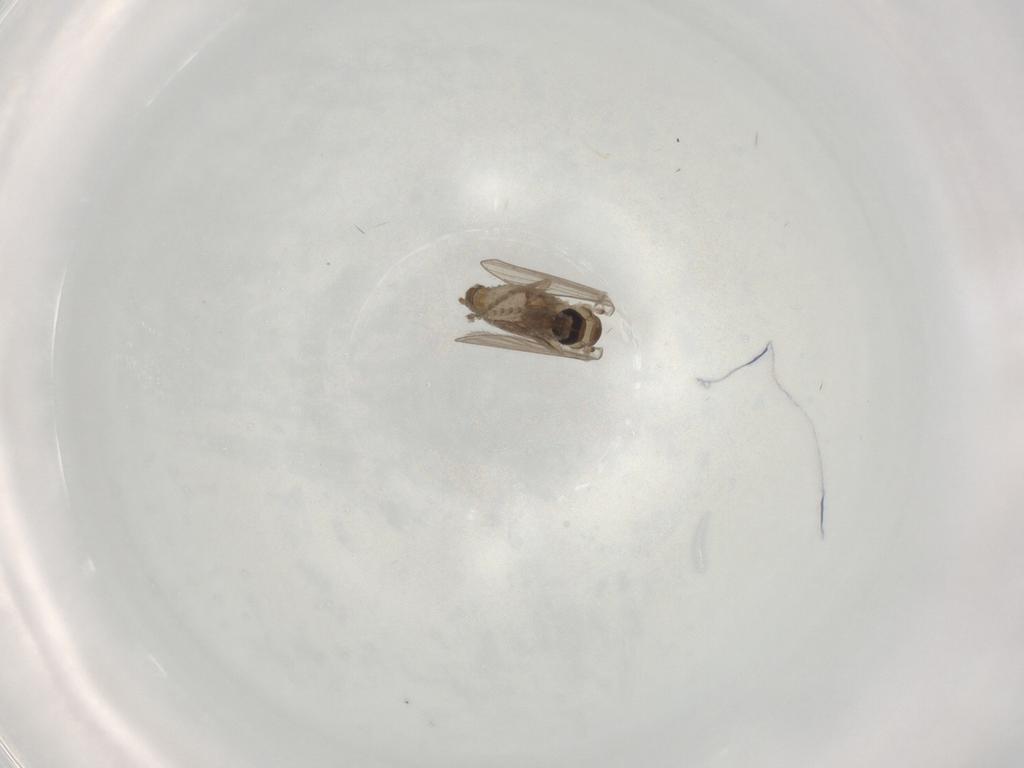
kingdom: Animalia
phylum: Arthropoda
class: Insecta
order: Diptera
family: Psychodidae
